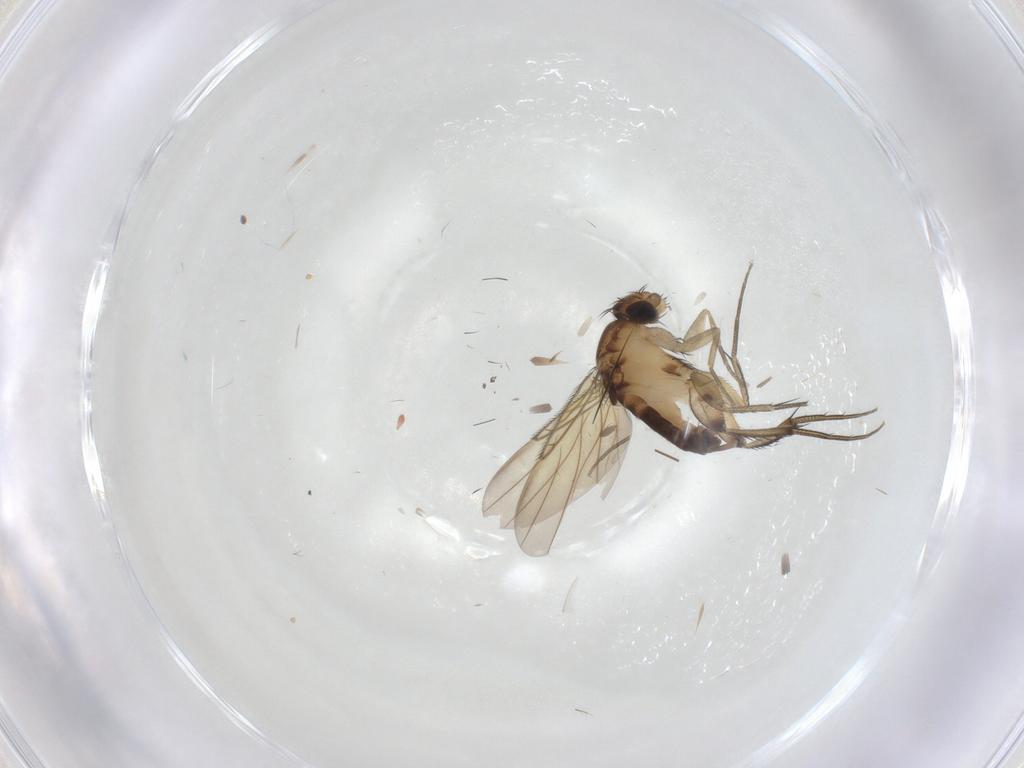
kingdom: Animalia
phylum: Arthropoda
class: Insecta
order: Diptera
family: Phoridae
